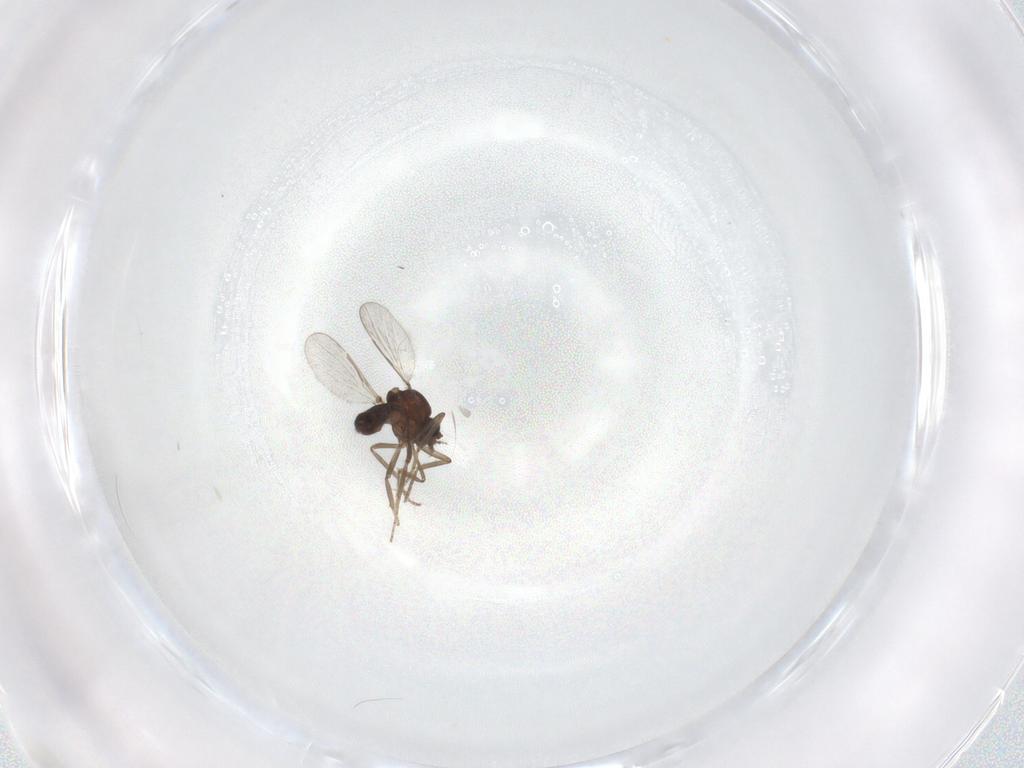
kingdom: Animalia
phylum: Arthropoda
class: Insecta
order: Diptera
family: Ceratopogonidae
